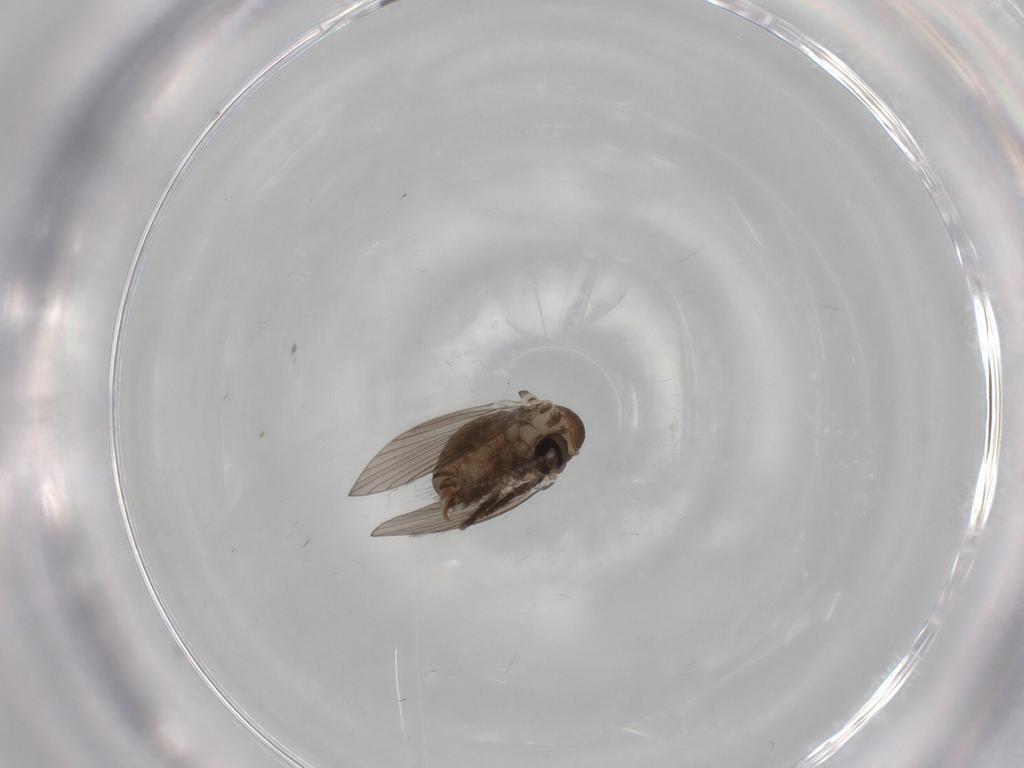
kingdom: Animalia
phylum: Arthropoda
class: Insecta
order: Diptera
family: Psychodidae
